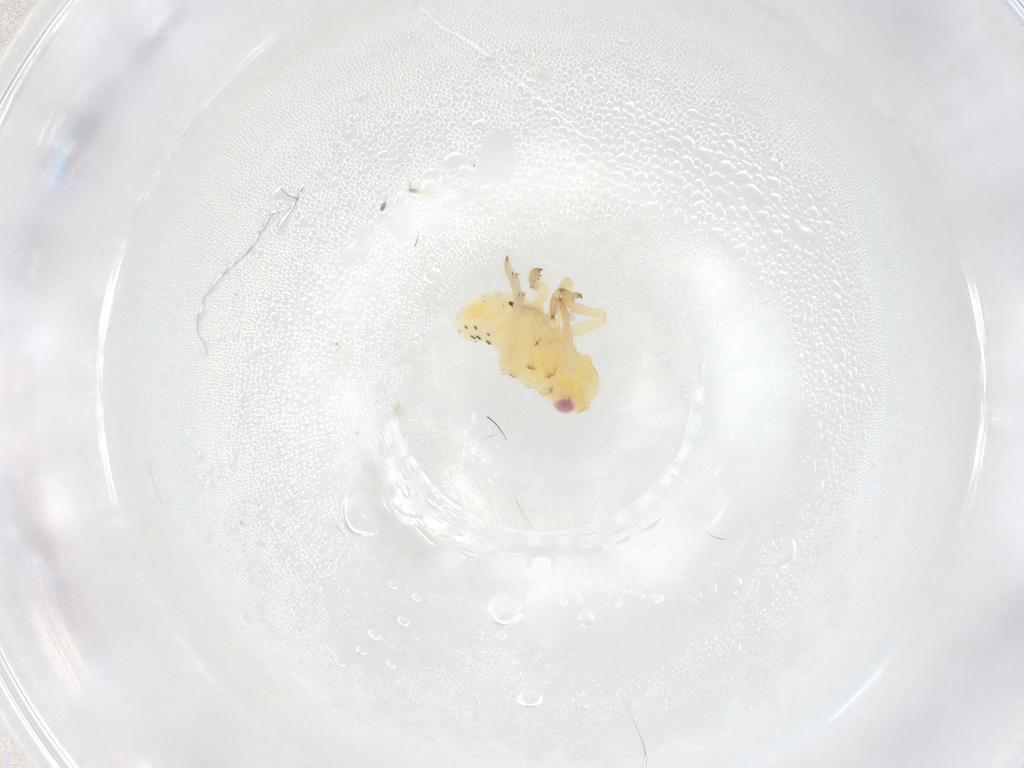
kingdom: Animalia
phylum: Arthropoda
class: Insecta
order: Hemiptera
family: Tropiduchidae
